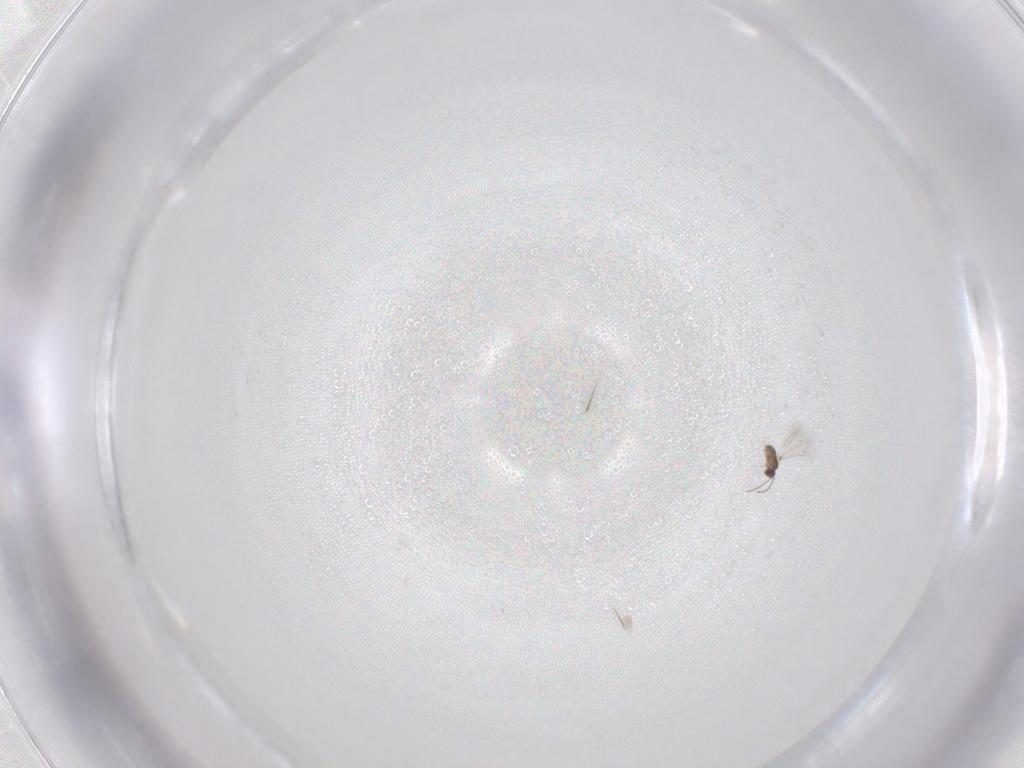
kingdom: Animalia
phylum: Arthropoda
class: Insecta
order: Hymenoptera
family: Mymaridae
